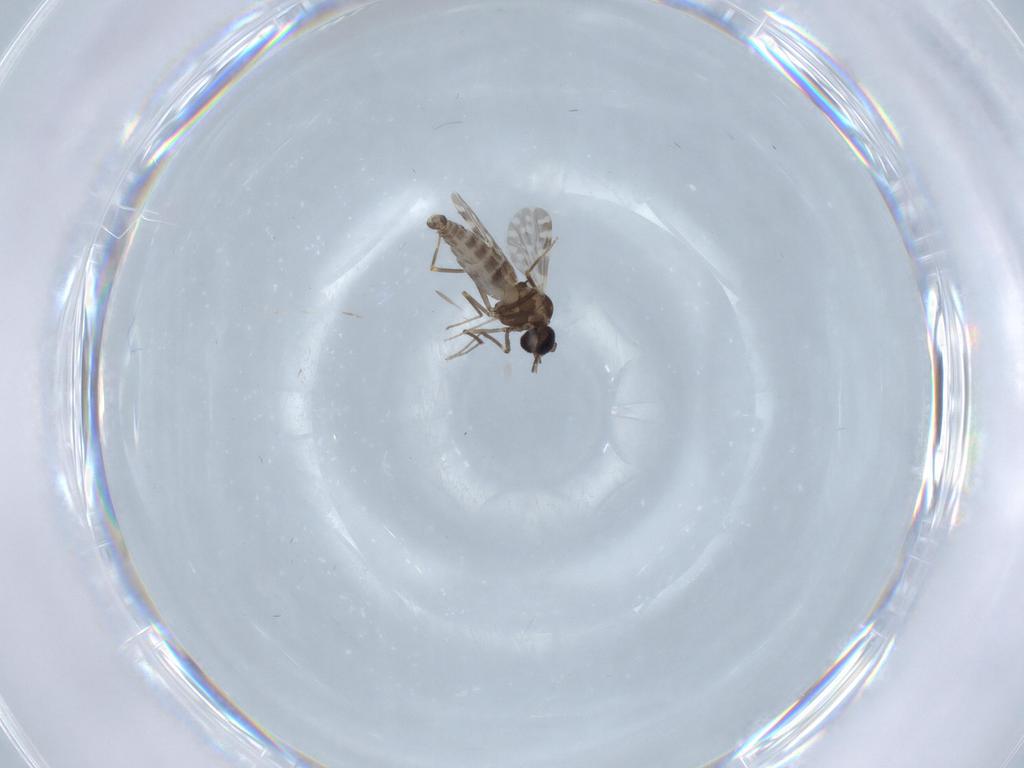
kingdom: Animalia
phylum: Arthropoda
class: Insecta
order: Diptera
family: Ceratopogonidae
